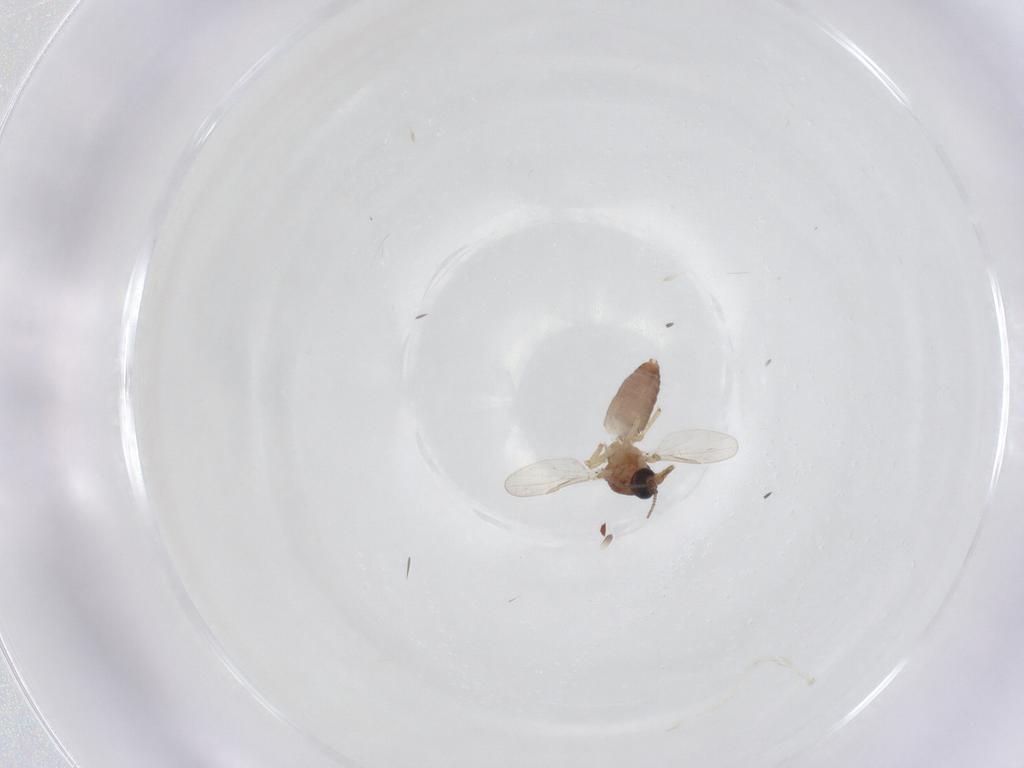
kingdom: Animalia
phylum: Arthropoda
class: Insecta
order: Diptera
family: Ceratopogonidae
